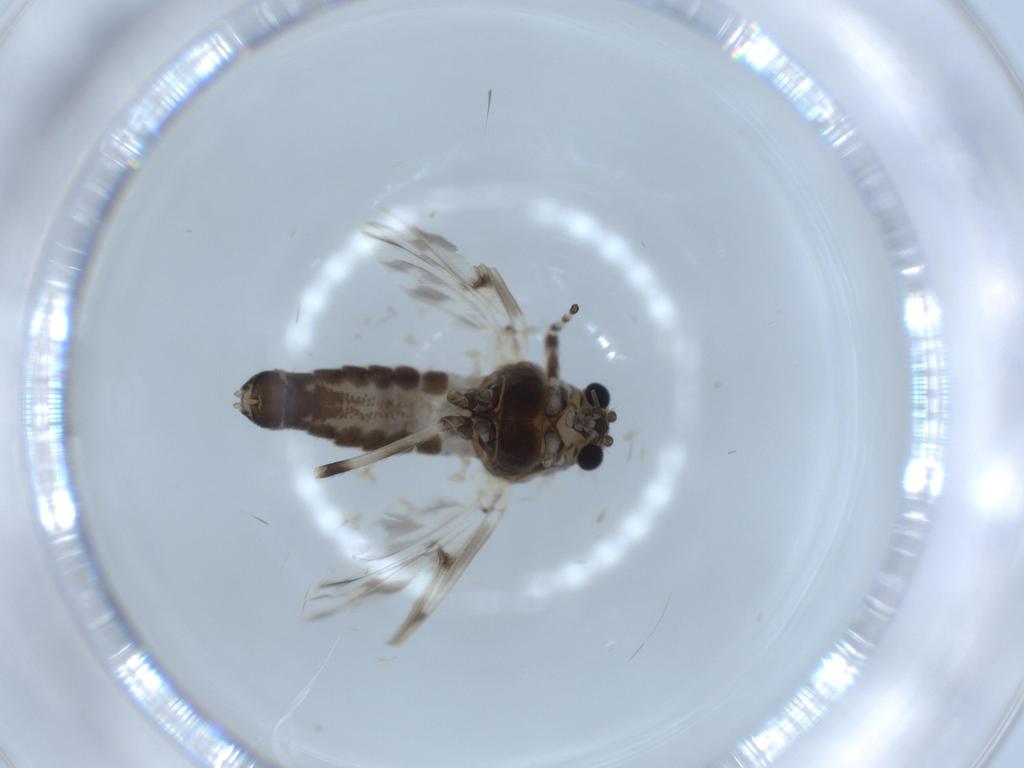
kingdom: Animalia
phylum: Arthropoda
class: Insecta
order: Diptera
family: Chironomidae
